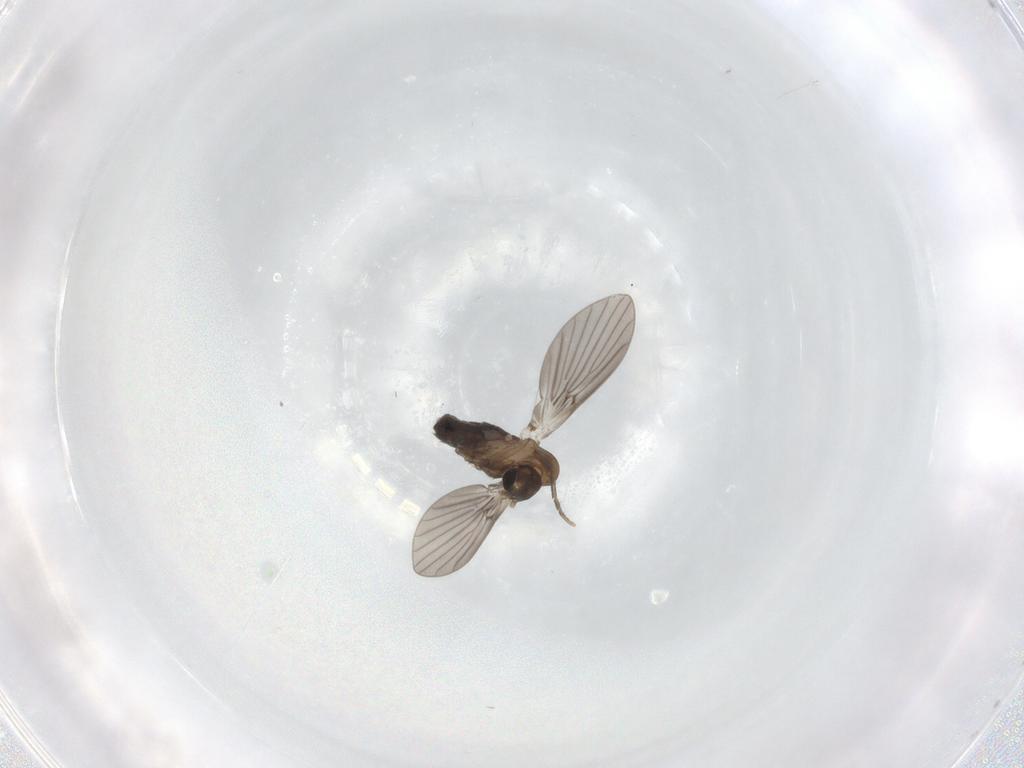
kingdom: Animalia
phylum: Arthropoda
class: Insecta
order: Diptera
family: Psychodidae
